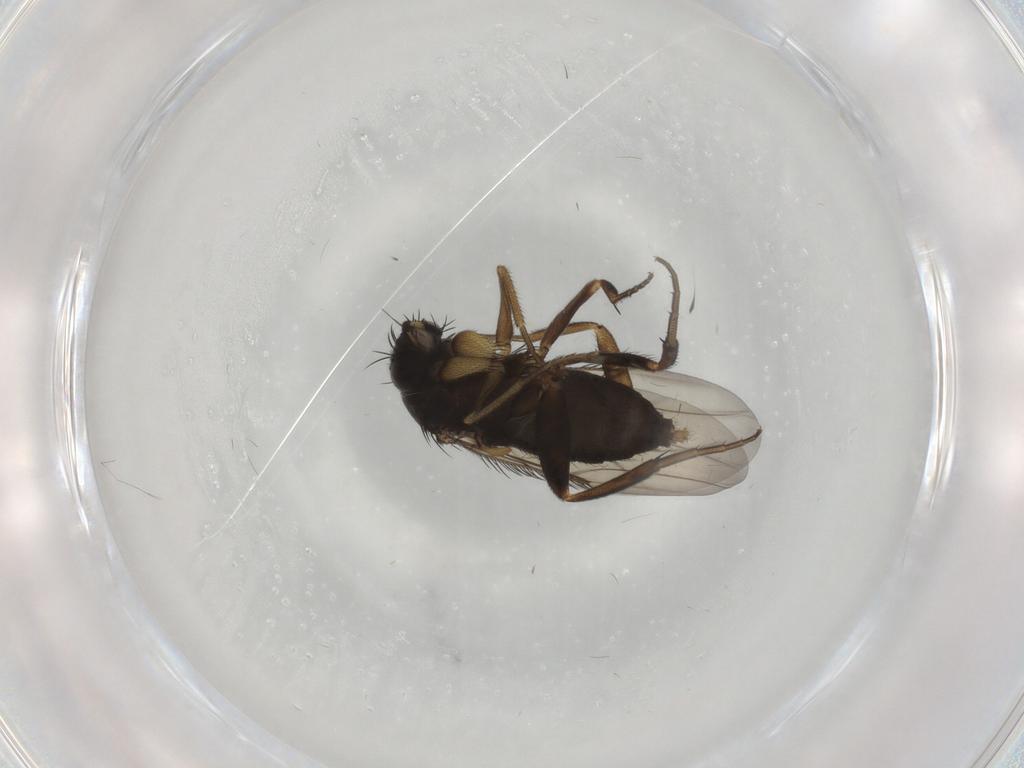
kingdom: Animalia
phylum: Arthropoda
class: Insecta
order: Diptera
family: Phoridae
